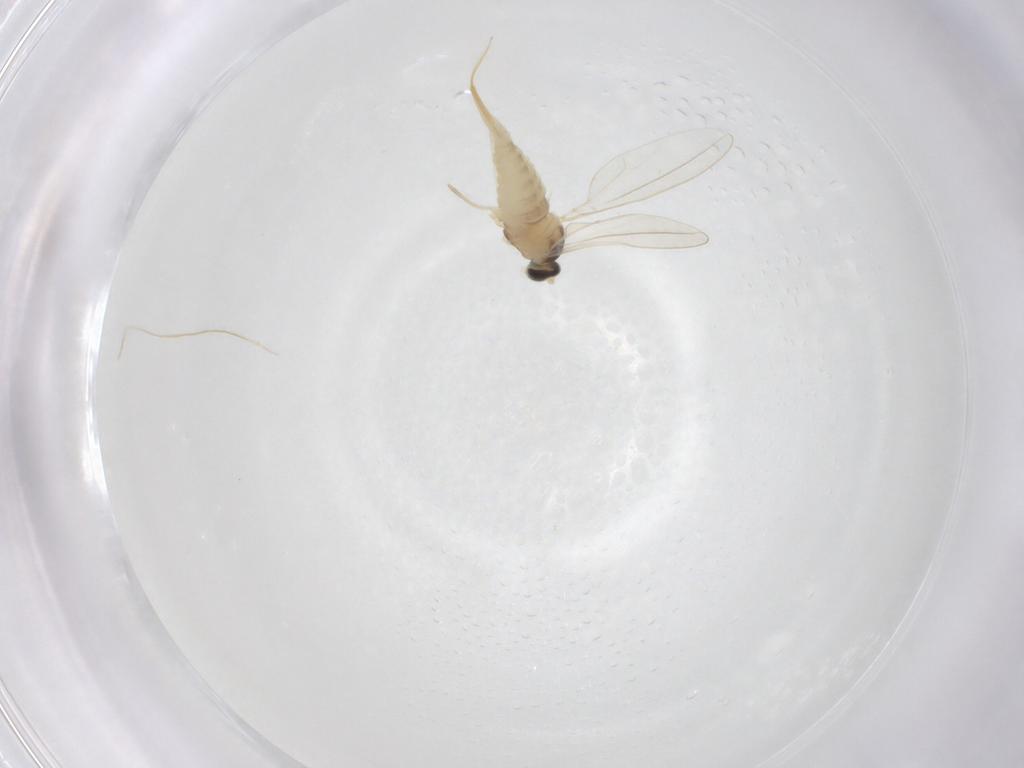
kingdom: Animalia
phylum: Arthropoda
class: Insecta
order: Diptera
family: Cecidomyiidae
